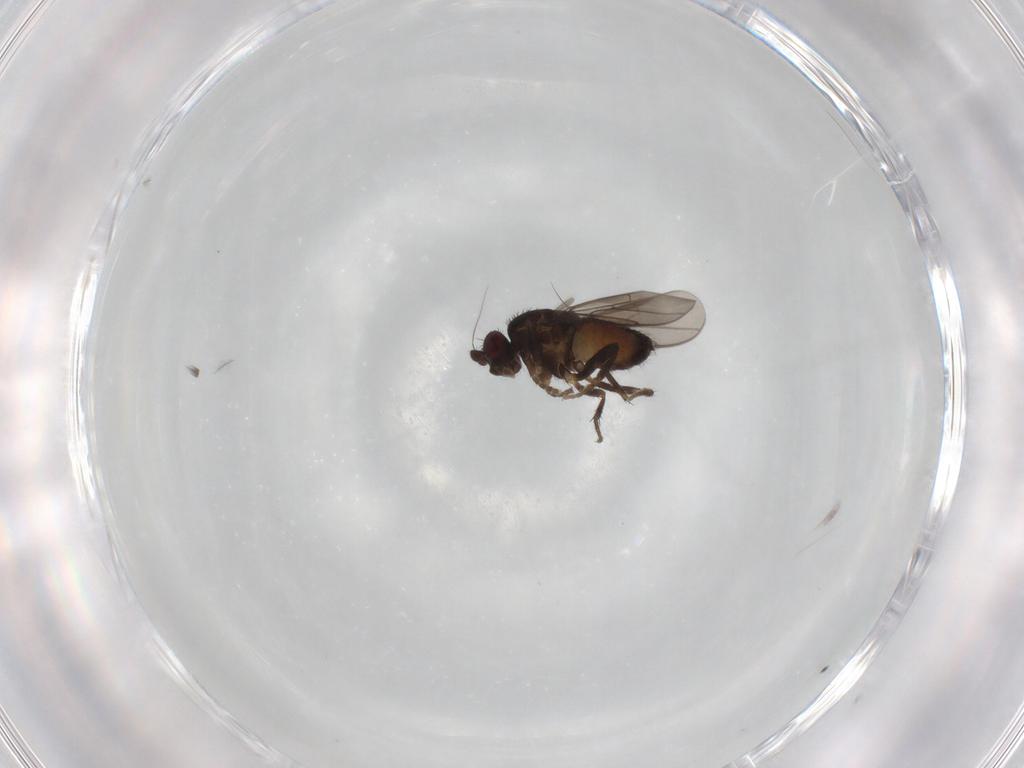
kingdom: Animalia
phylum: Arthropoda
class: Insecta
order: Diptera
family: Sphaeroceridae
